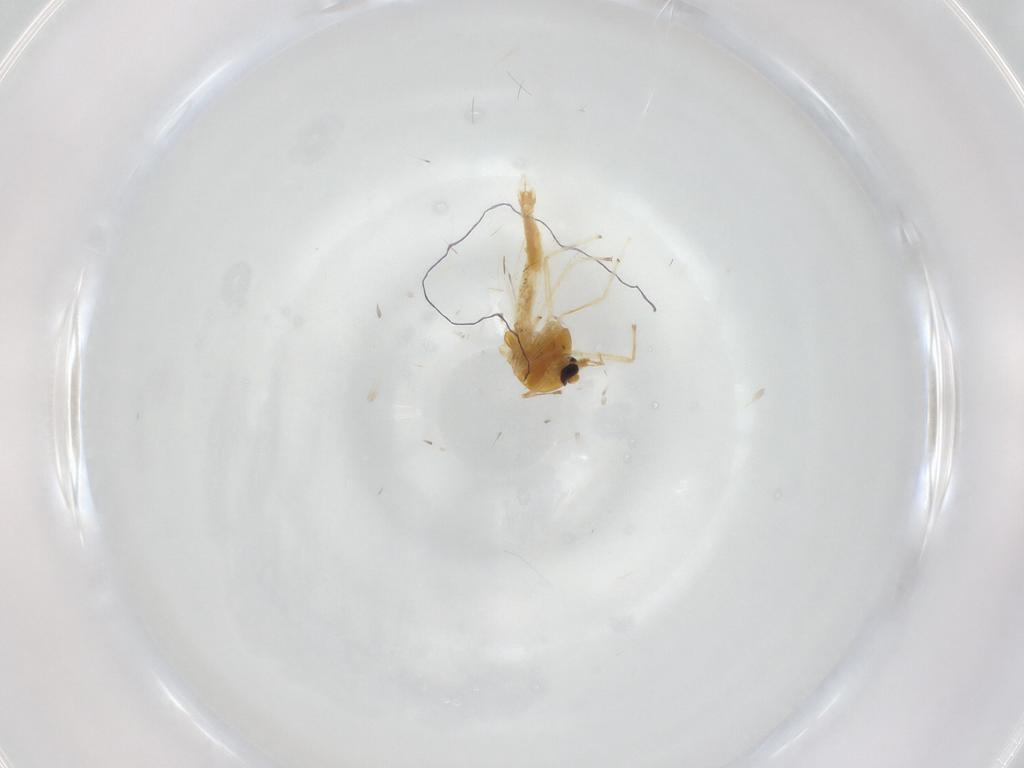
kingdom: Animalia
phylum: Arthropoda
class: Insecta
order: Diptera
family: Chironomidae
